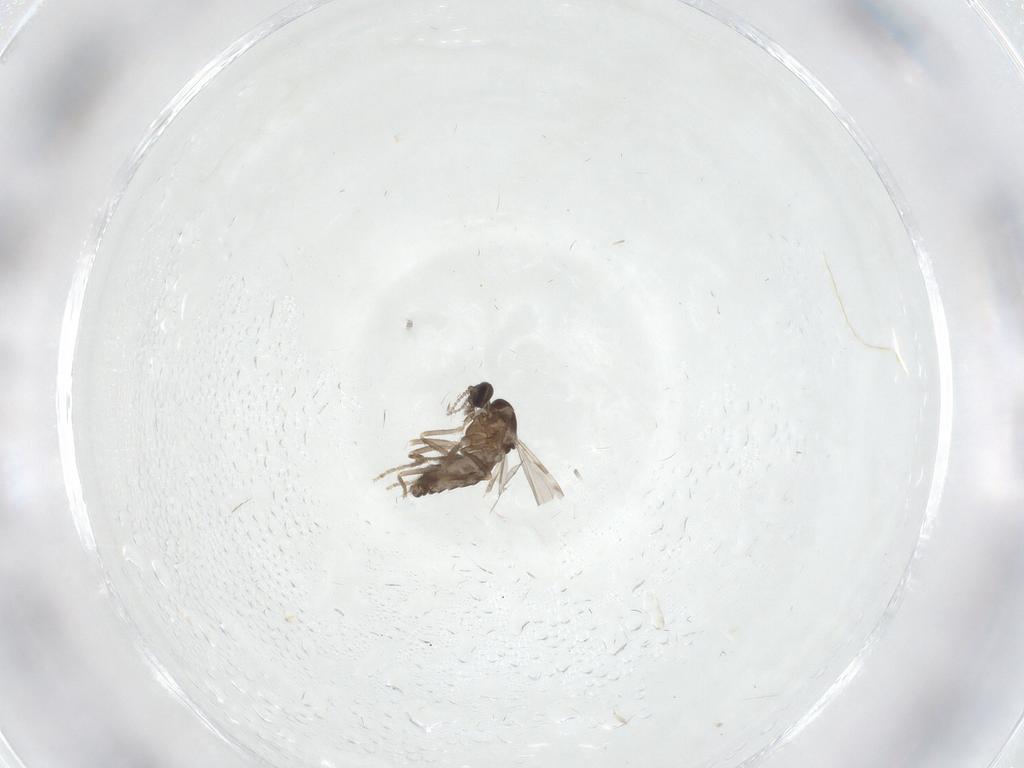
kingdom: Animalia
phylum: Arthropoda
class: Insecta
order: Diptera
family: Ceratopogonidae
